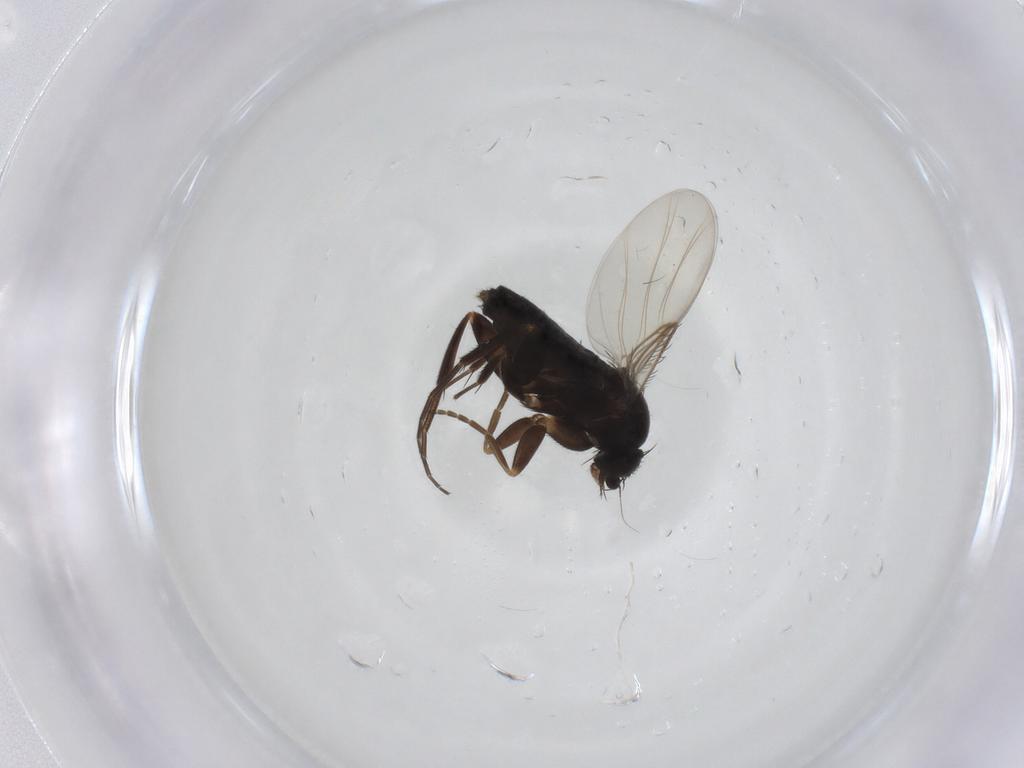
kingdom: Animalia
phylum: Arthropoda
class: Insecta
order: Diptera
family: Phoridae
